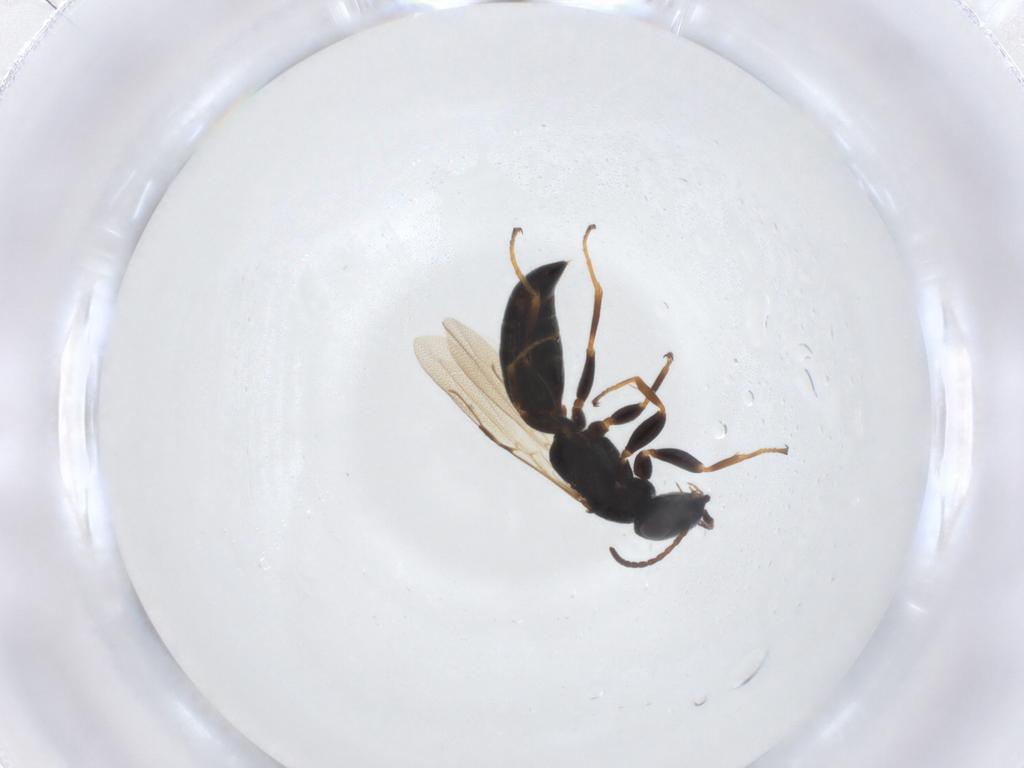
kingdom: Animalia
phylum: Arthropoda
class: Insecta
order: Hymenoptera
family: Bethylidae
